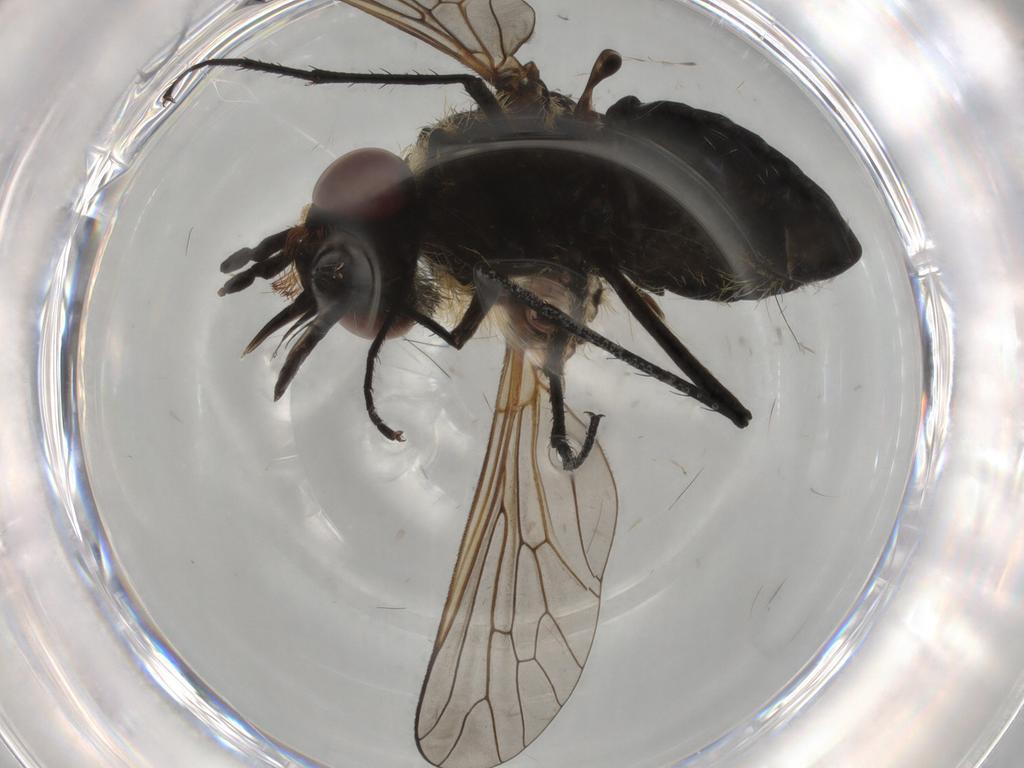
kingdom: Animalia
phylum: Arthropoda
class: Insecta
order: Diptera
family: Bombyliidae
